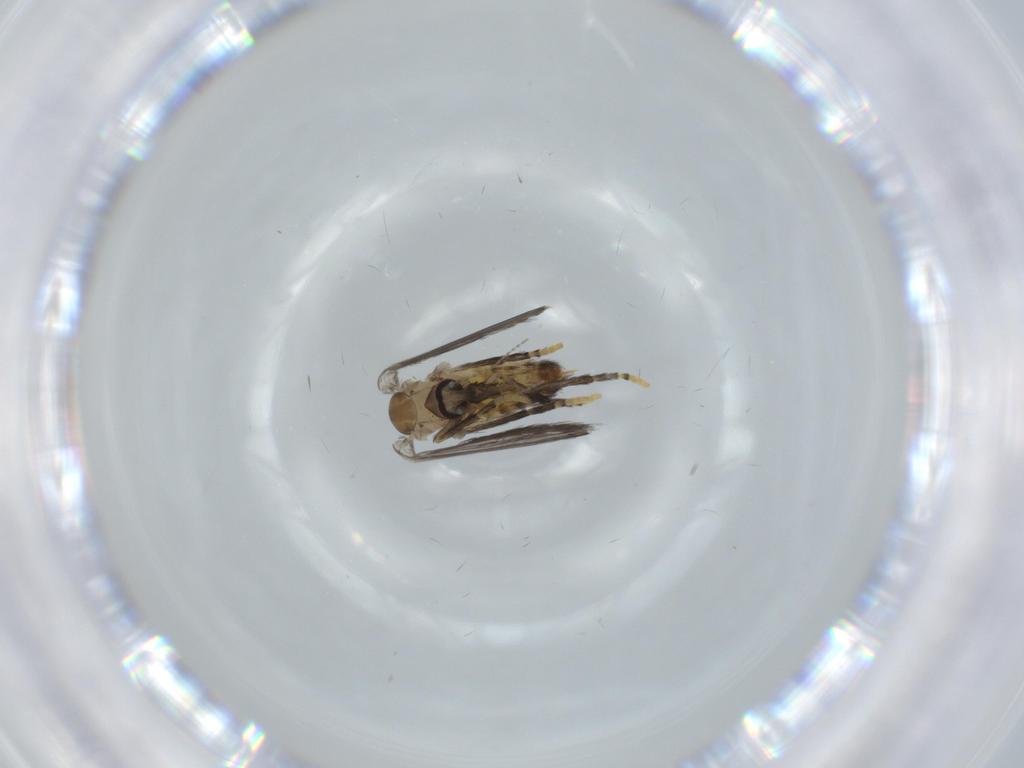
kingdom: Animalia
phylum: Arthropoda
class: Insecta
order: Diptera
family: Psychodidae
